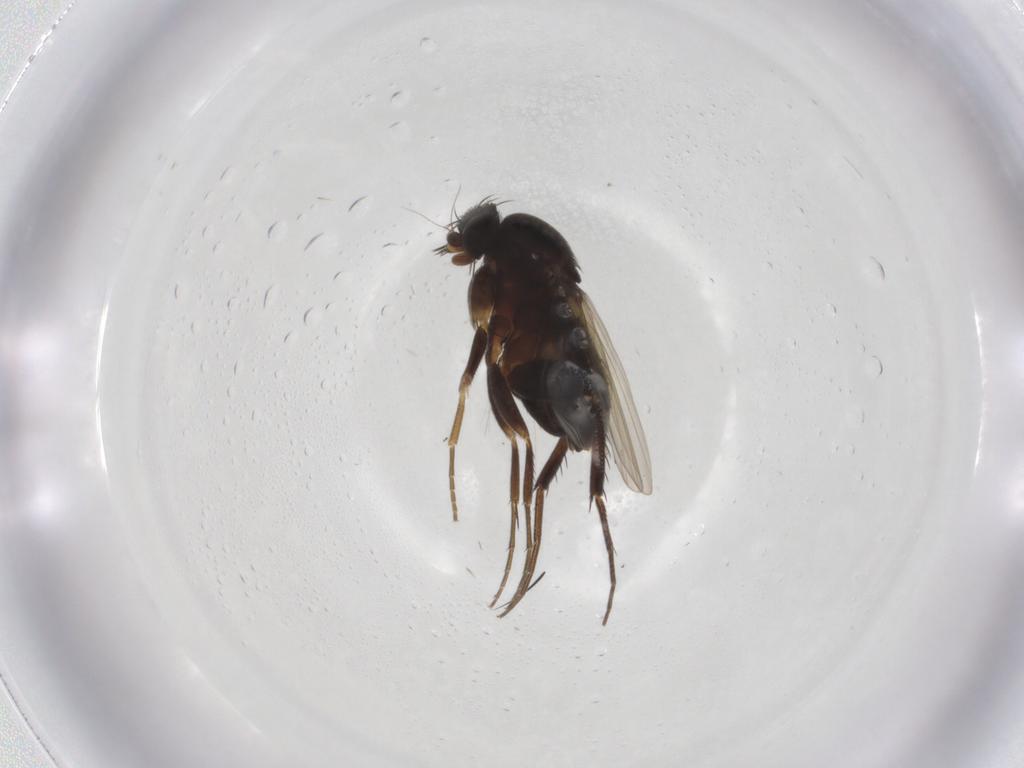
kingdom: Animalia
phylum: Arthropoda
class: Insecta
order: Diptera
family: Phoridae
